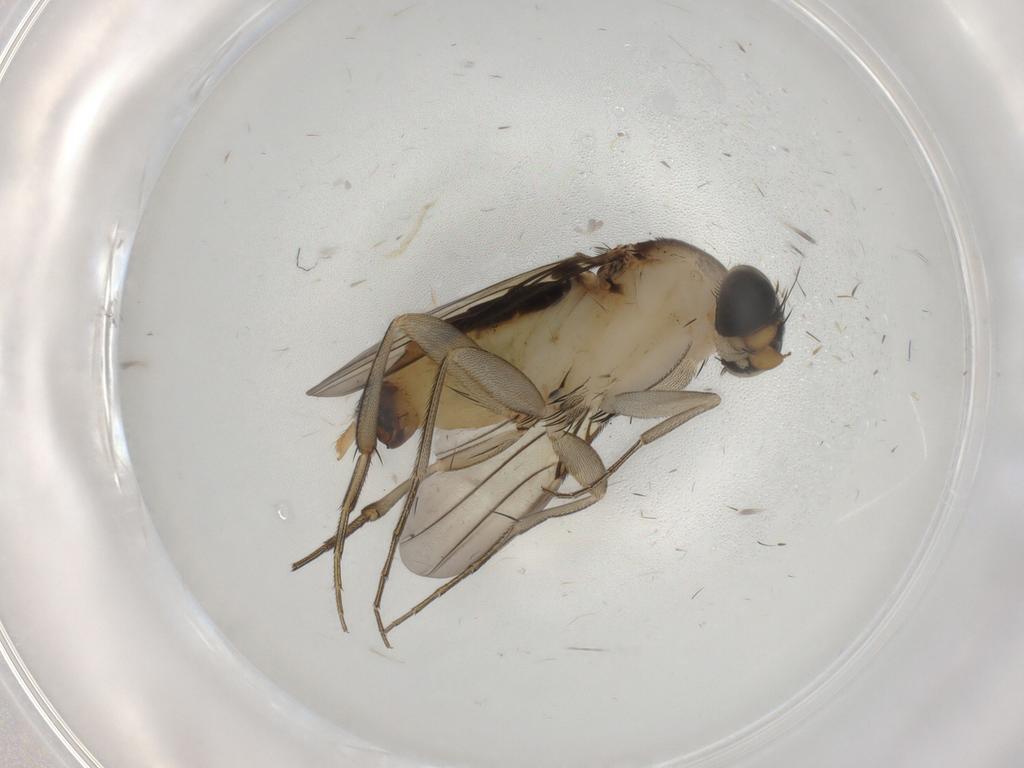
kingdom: Animalia
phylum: Arthropoda
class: Insecta
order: Diptera
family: Phoridae
